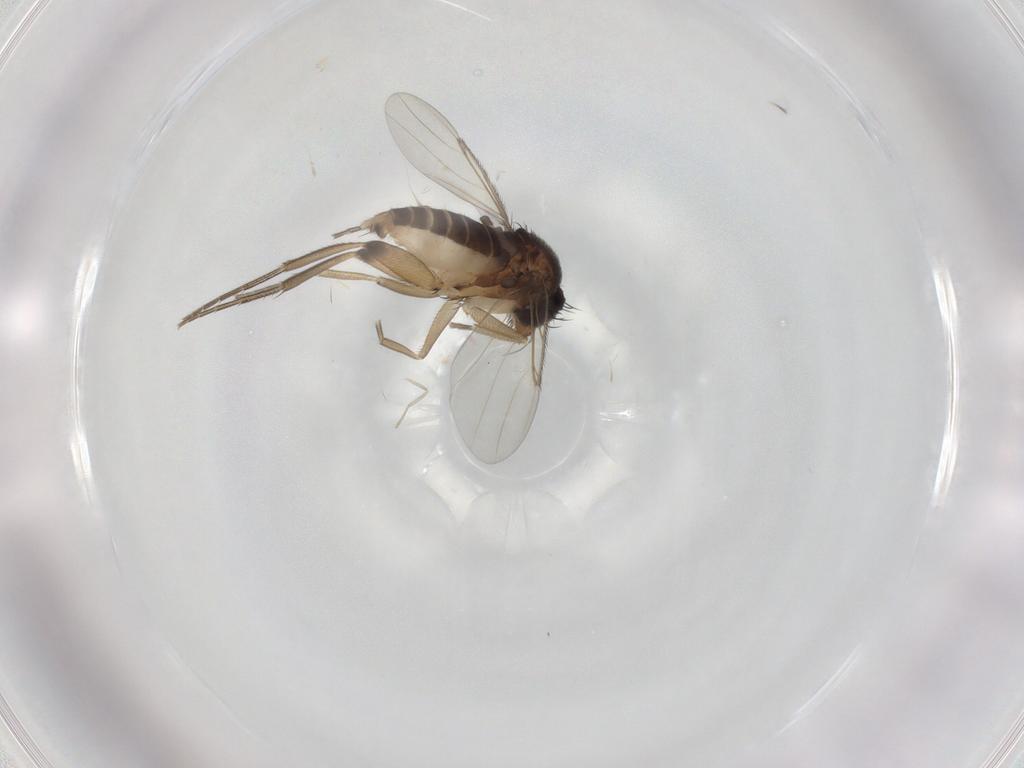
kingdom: Animalia
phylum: Arthropoda
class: Insecta
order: Diptera
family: Cecidomyiidae
